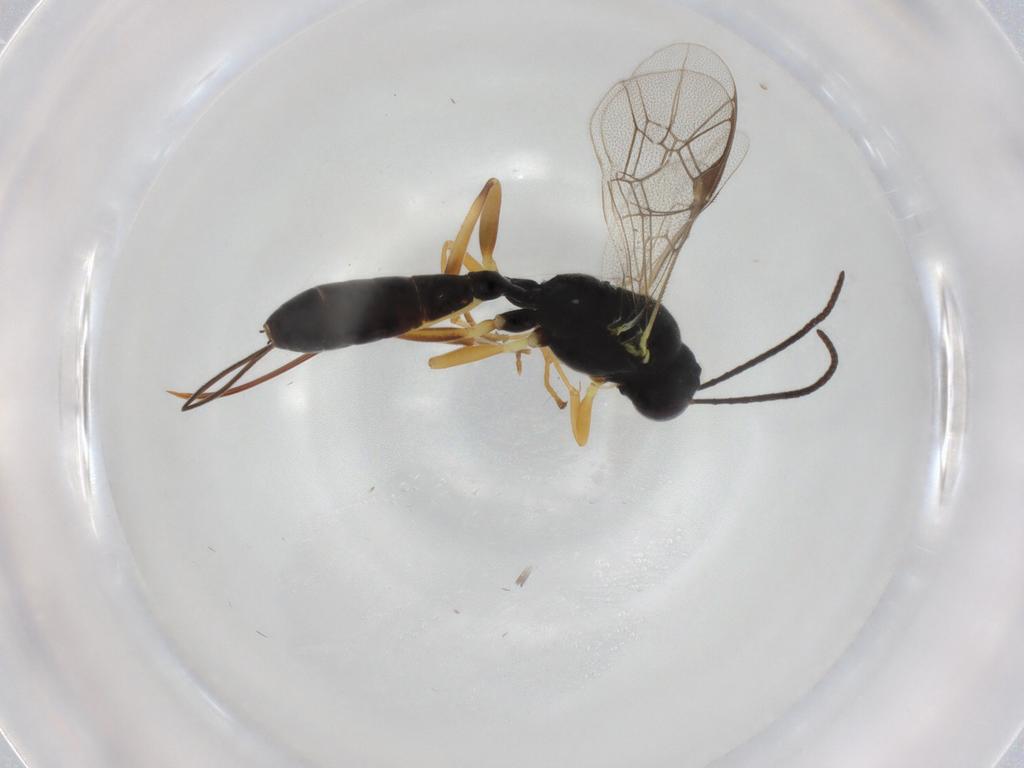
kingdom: Animalia
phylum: Arthropoda
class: Insecta
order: Hymenoptera
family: Ichneumonidae
